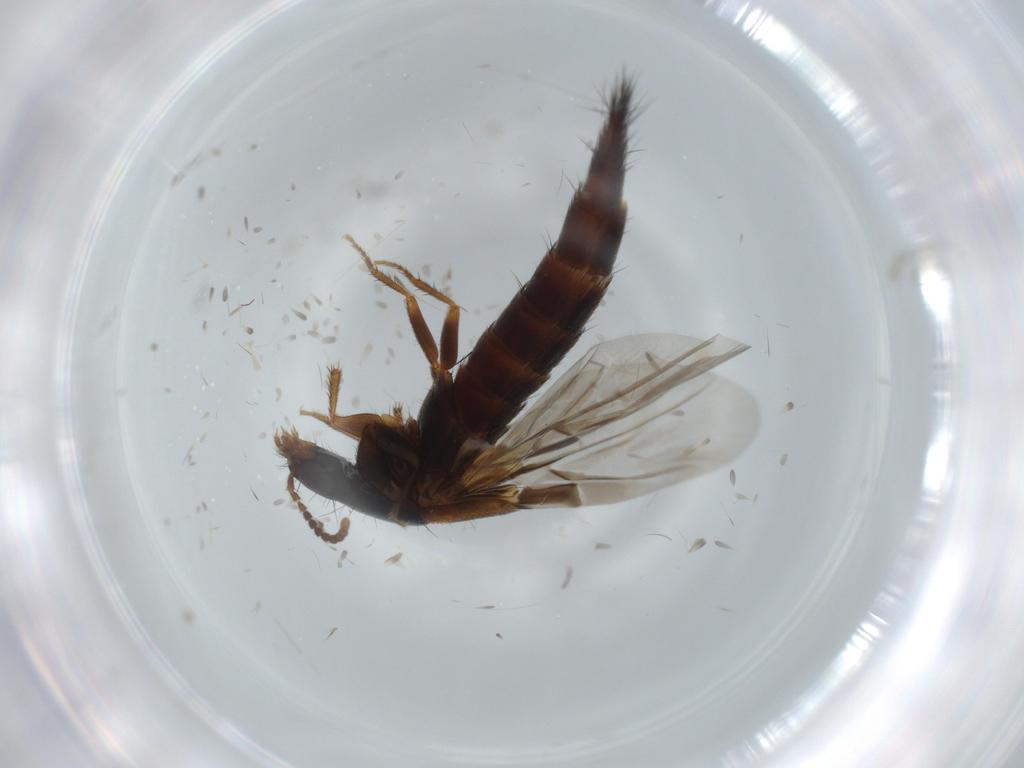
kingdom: Animalia
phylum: Arthropoda
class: Insecta
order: Coleoptera
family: Staphylinidae
